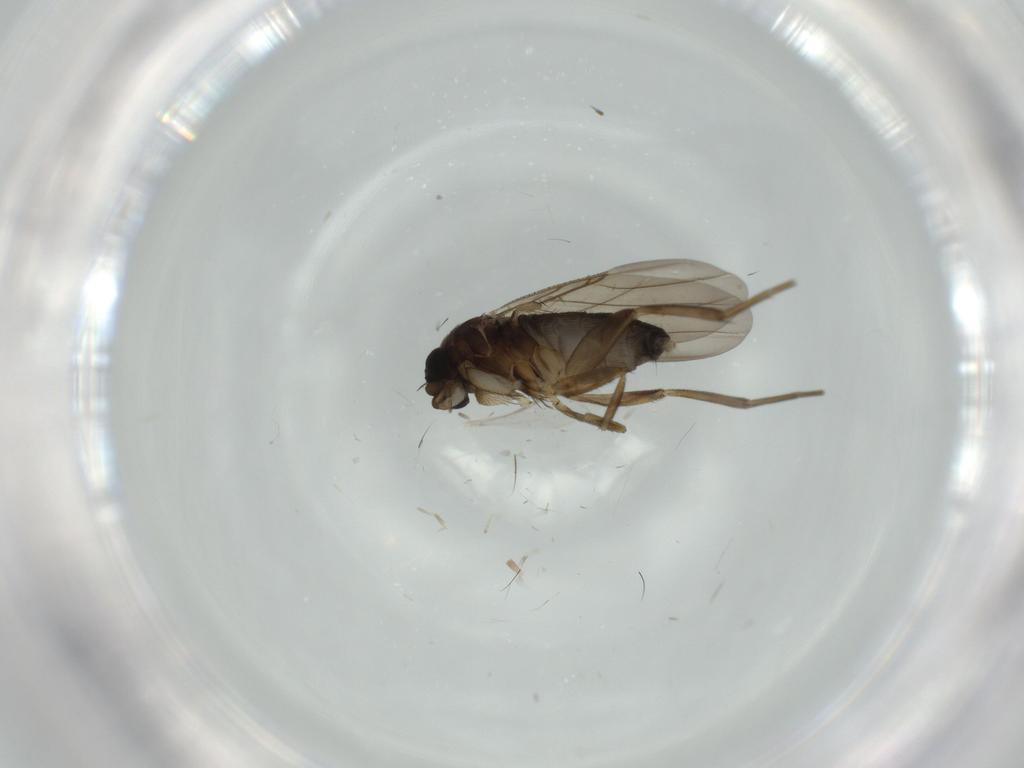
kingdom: Animalia
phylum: Arthropoda
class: Insecta
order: Diptera
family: Phoridae
